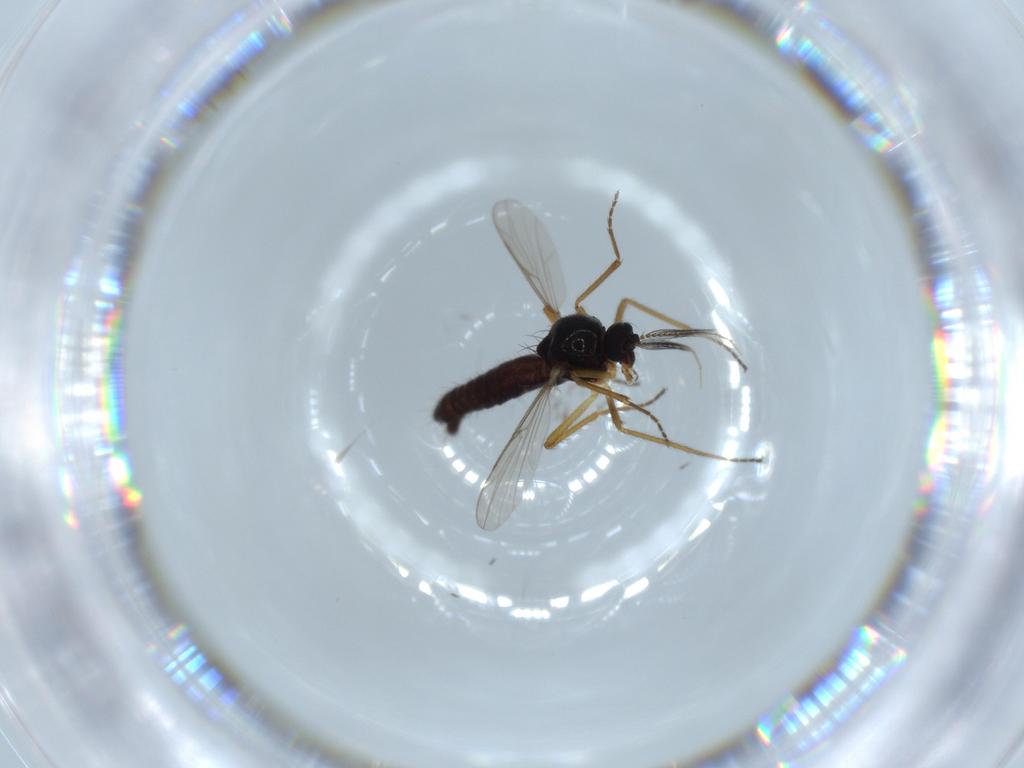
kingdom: Animalia
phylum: Arthropoda
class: Insecta
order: Diptera
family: Ceratopogonidae
